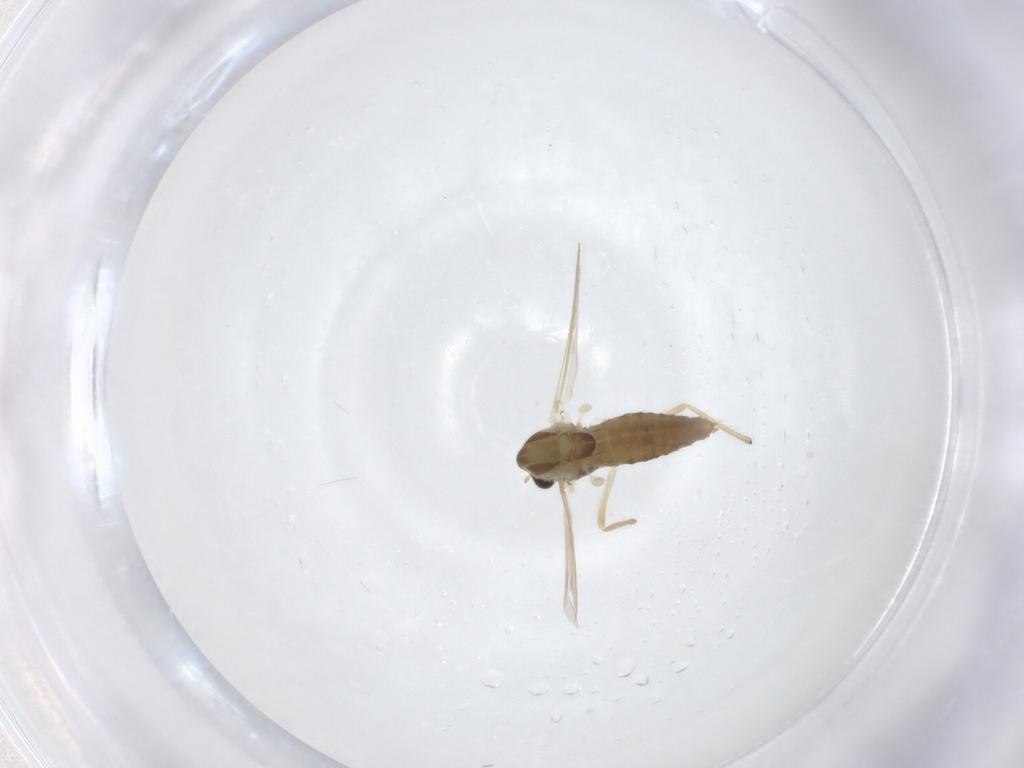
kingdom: Animalia
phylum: Arthropoda
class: Insecta
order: Diptera
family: Chironomidae
